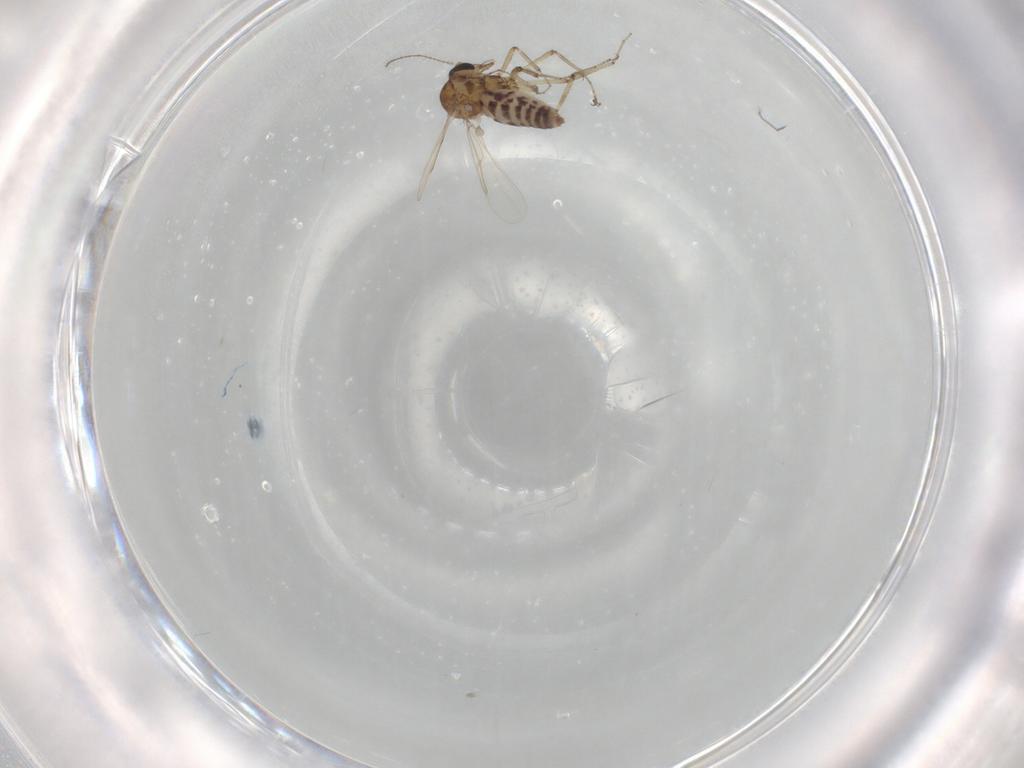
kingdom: Animalia
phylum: Arthropoda
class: Insecta
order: Diptera
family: Ceratopogonidae
